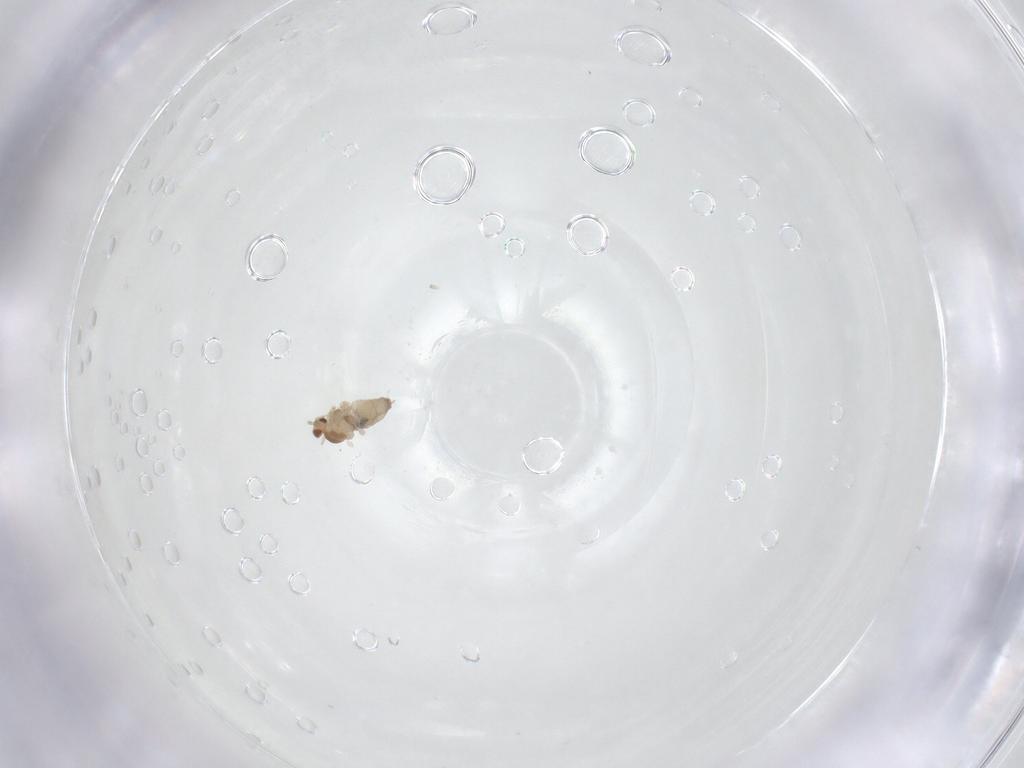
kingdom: Animalia
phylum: Arthropoda
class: Insecta
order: Diptera
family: Cecidomyiidae
